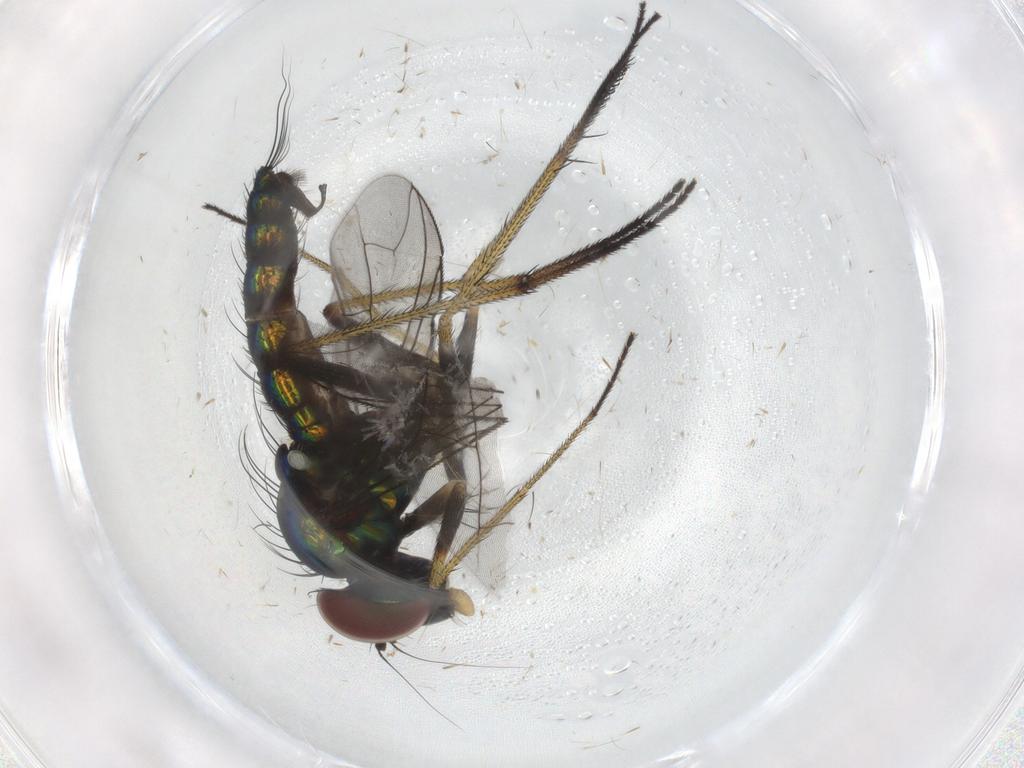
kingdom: Animalia
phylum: Arthropoda
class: Insecta
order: Diptera
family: Dolichopodidae
